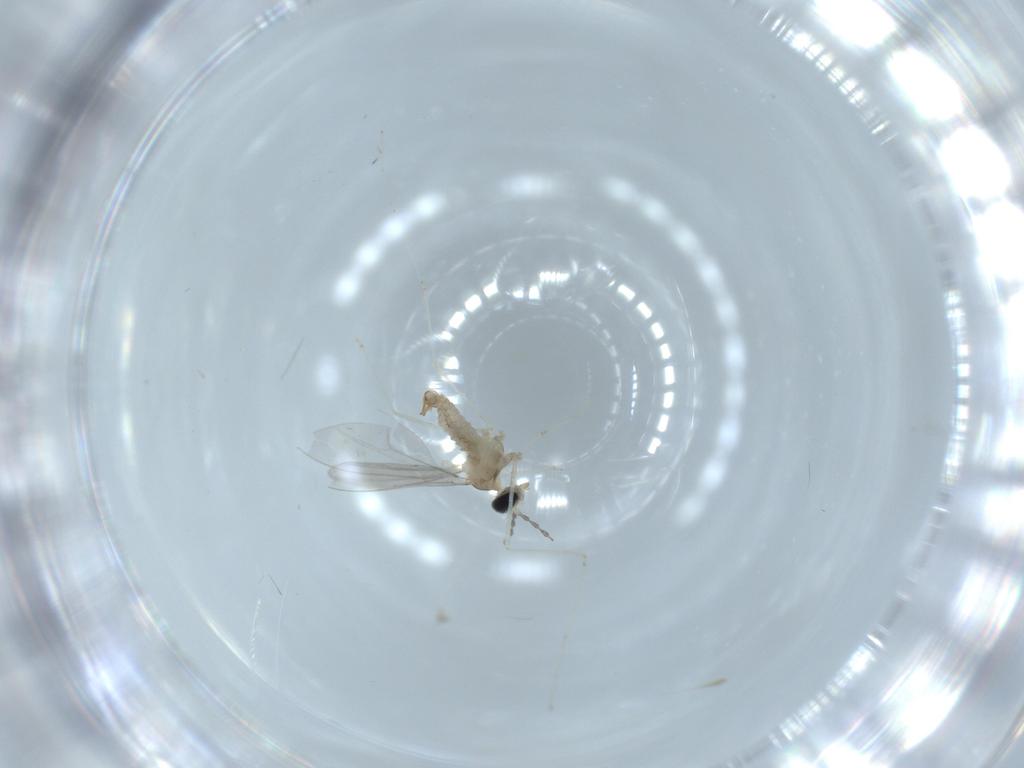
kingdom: Animalia
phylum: Arthropoda
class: Insecta
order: Diptera
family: Cecidomyiidae
